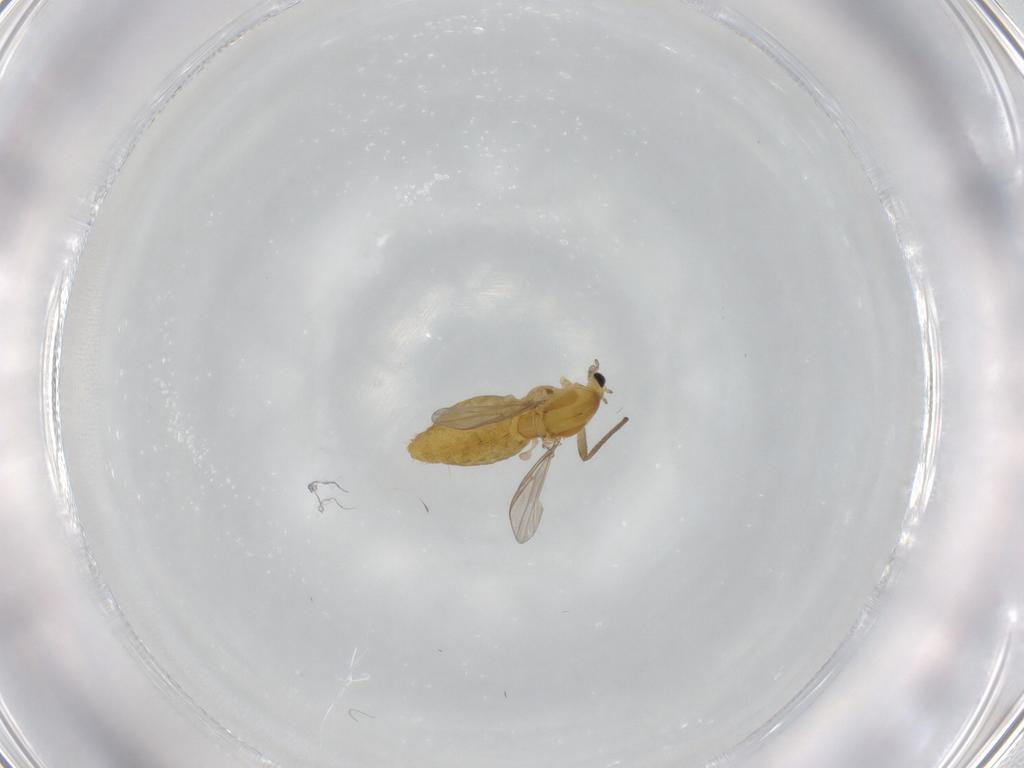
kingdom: Animalia
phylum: Arthropoda
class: Insecta
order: Diptera
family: Chironomidae
